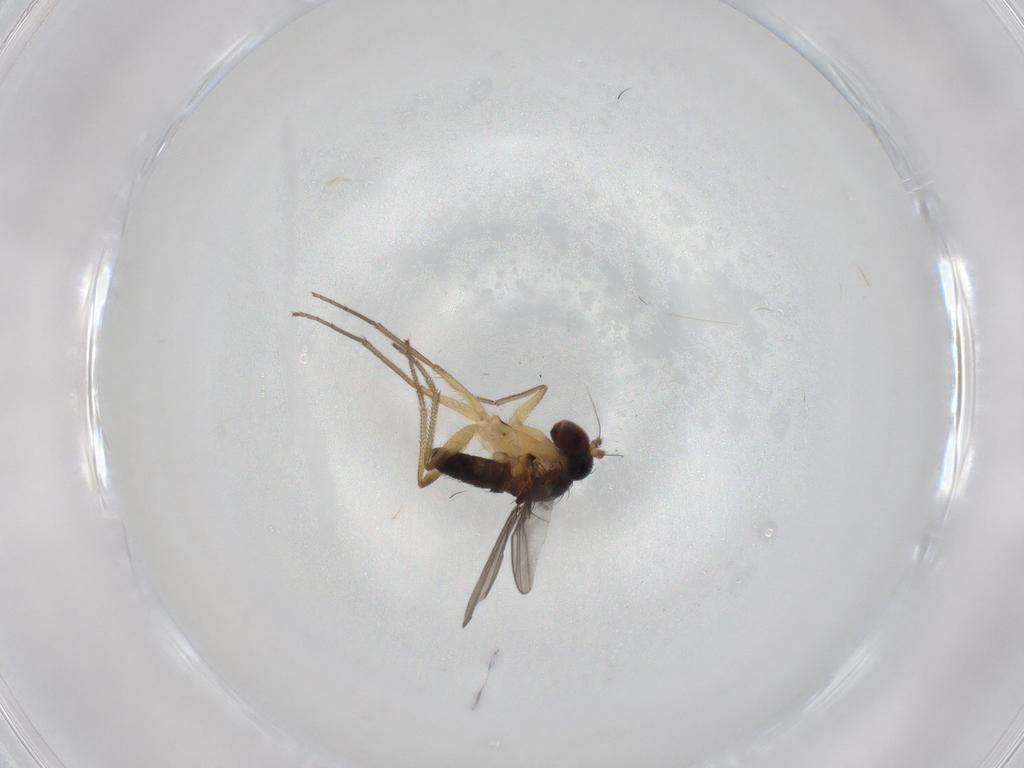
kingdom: Animalia
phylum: Arthropoda
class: Insecta
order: Diptera
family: Dolichopodidae
